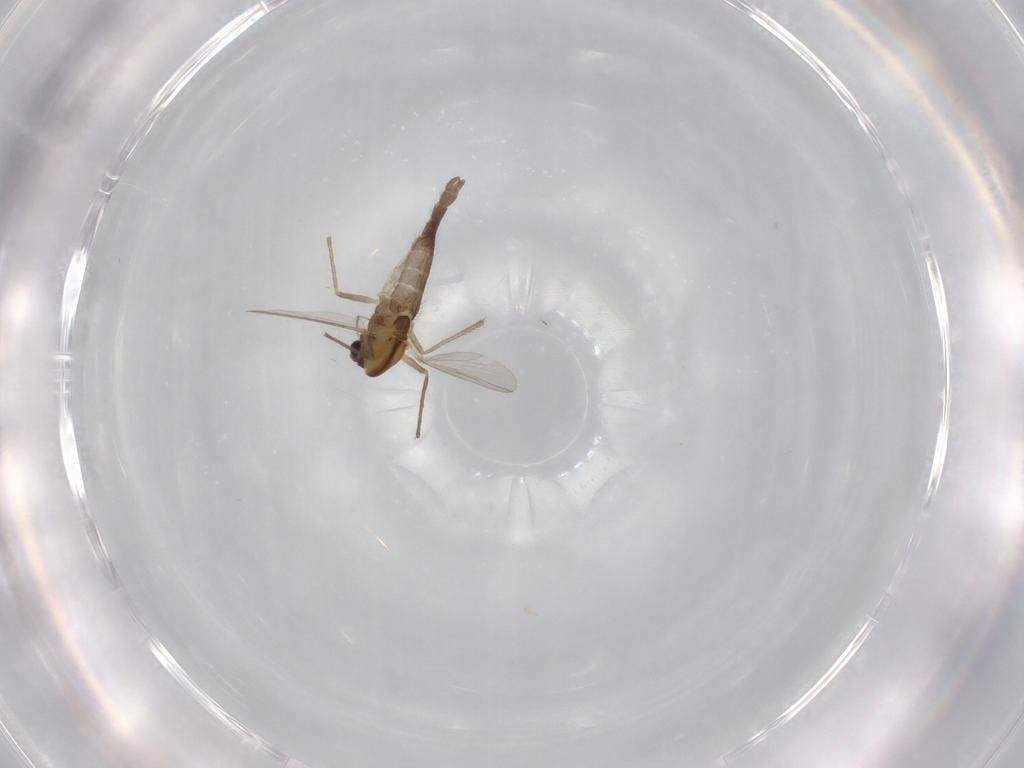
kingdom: Animalia
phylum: Arthropoda
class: Insecta
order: Diptera
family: Chironomidae
